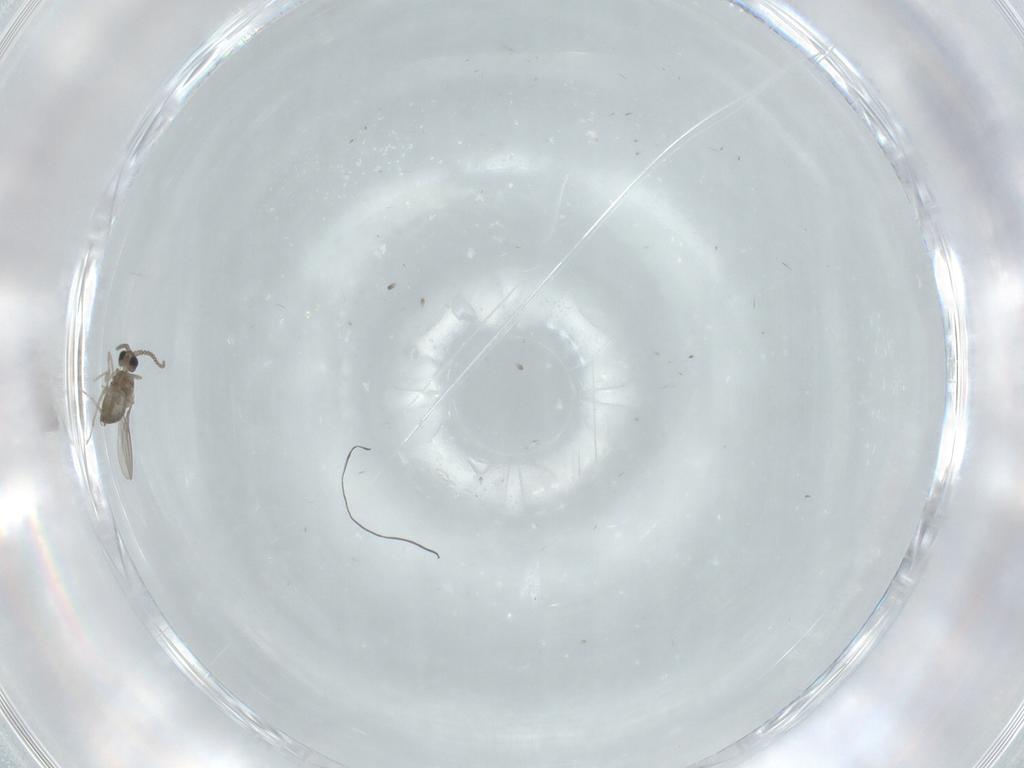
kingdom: Animalia
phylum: Arthropoda
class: Insecta
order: Diptera
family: Cecidomyiidae
